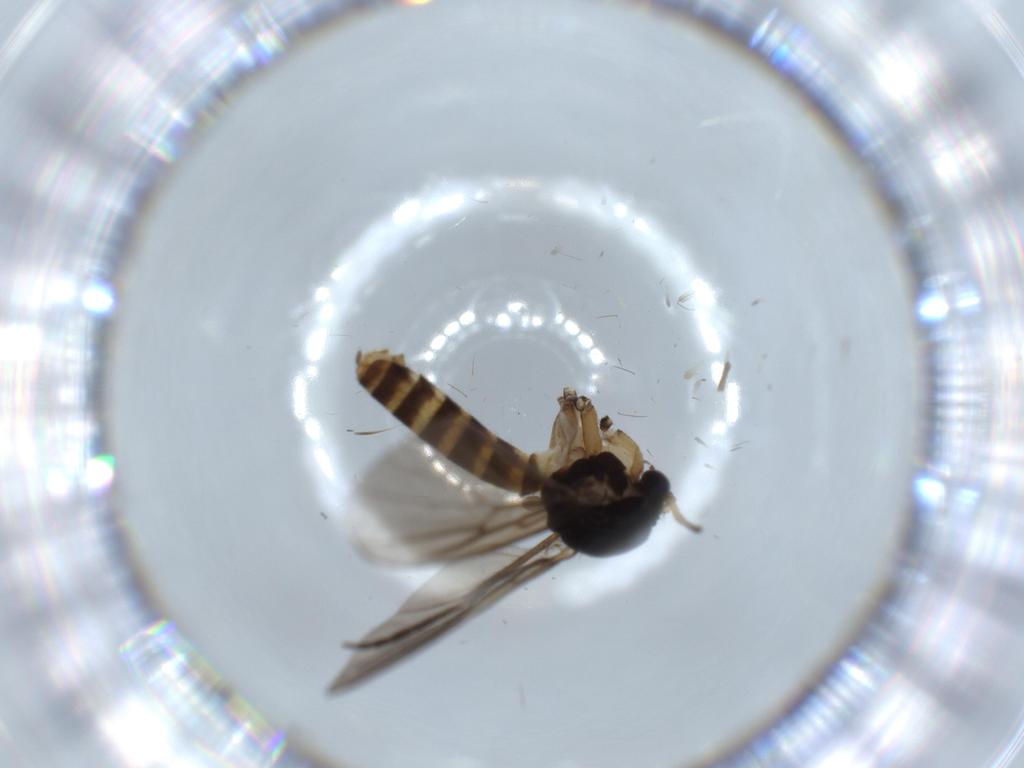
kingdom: Animalia
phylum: Arthropoda
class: Insecta
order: Diptera
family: Mycetophilidae
